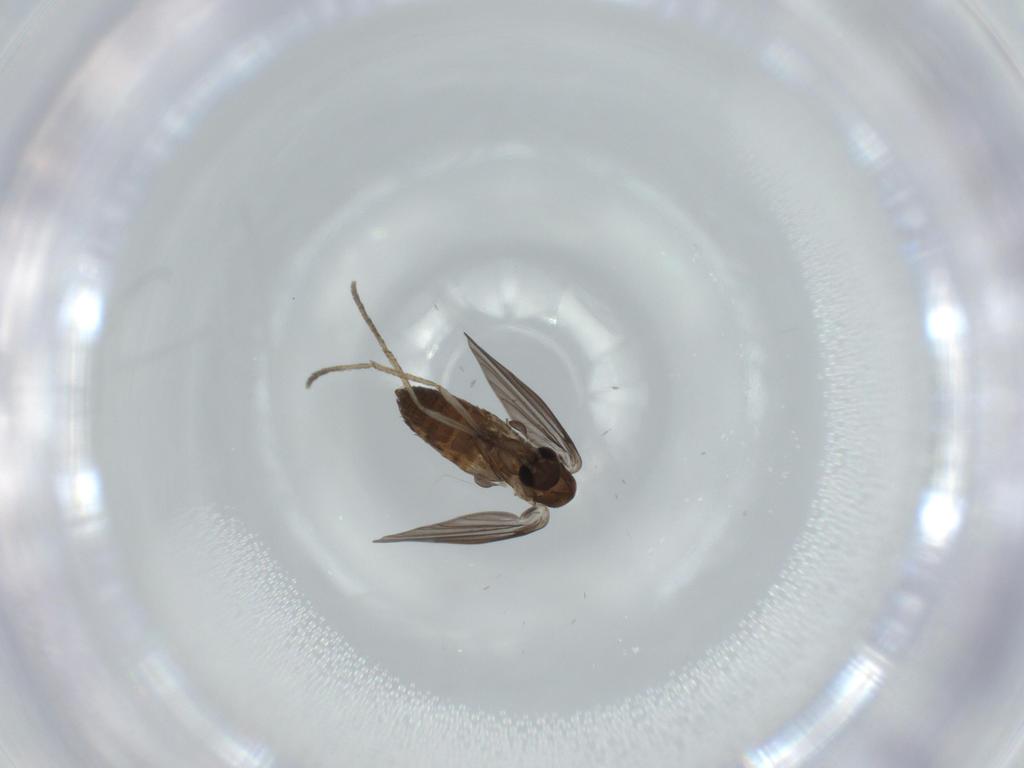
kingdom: Animalia
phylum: Arthropoda
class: Insecta
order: Diptera
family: Psychodidae
